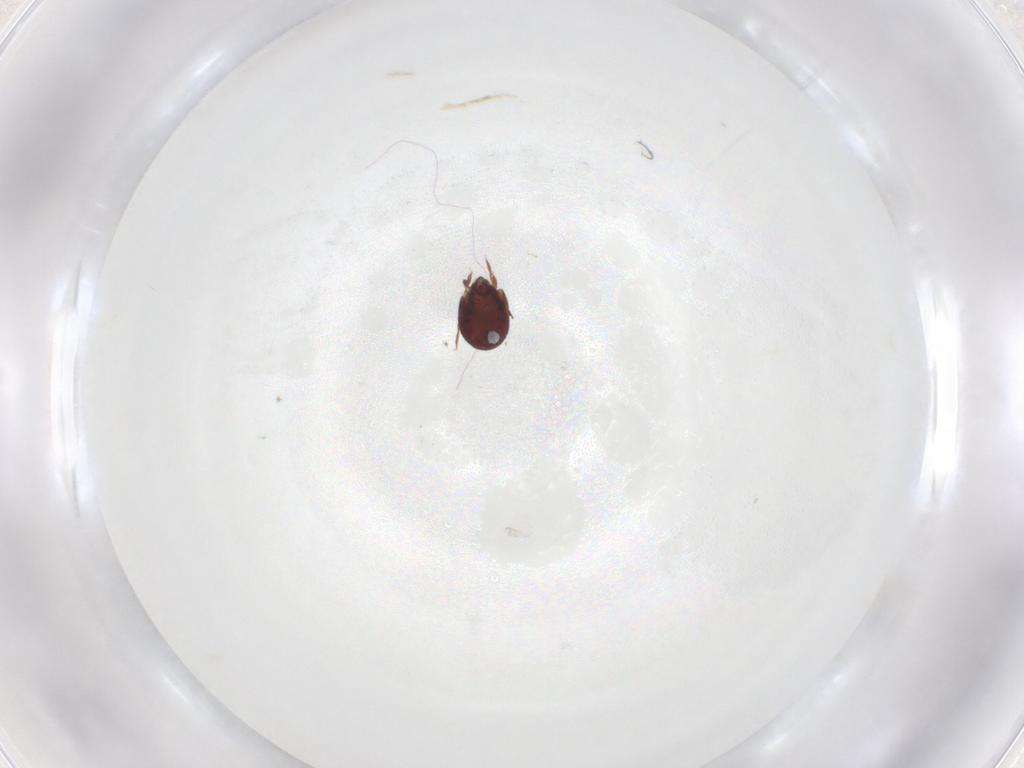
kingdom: Animalia
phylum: Arthropoda
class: Arachnida
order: Sarcoptiformes
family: Humerobatidae
